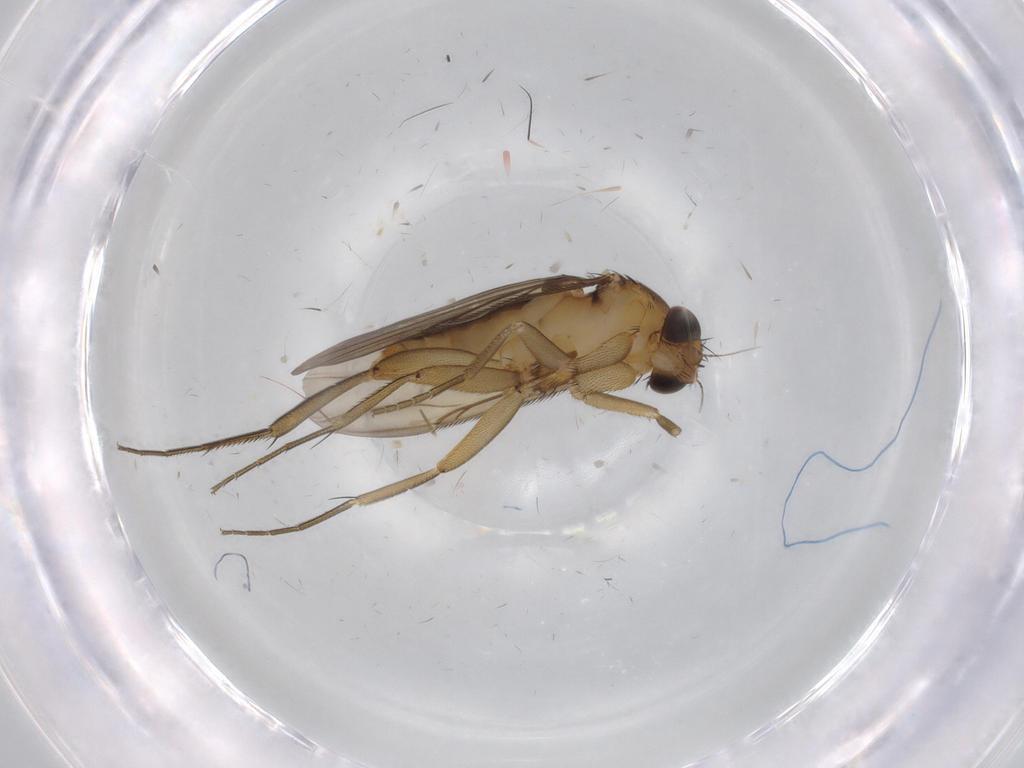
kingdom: Animalia
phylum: Arthropoda
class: Insecta
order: Diptera
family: Phoridae
